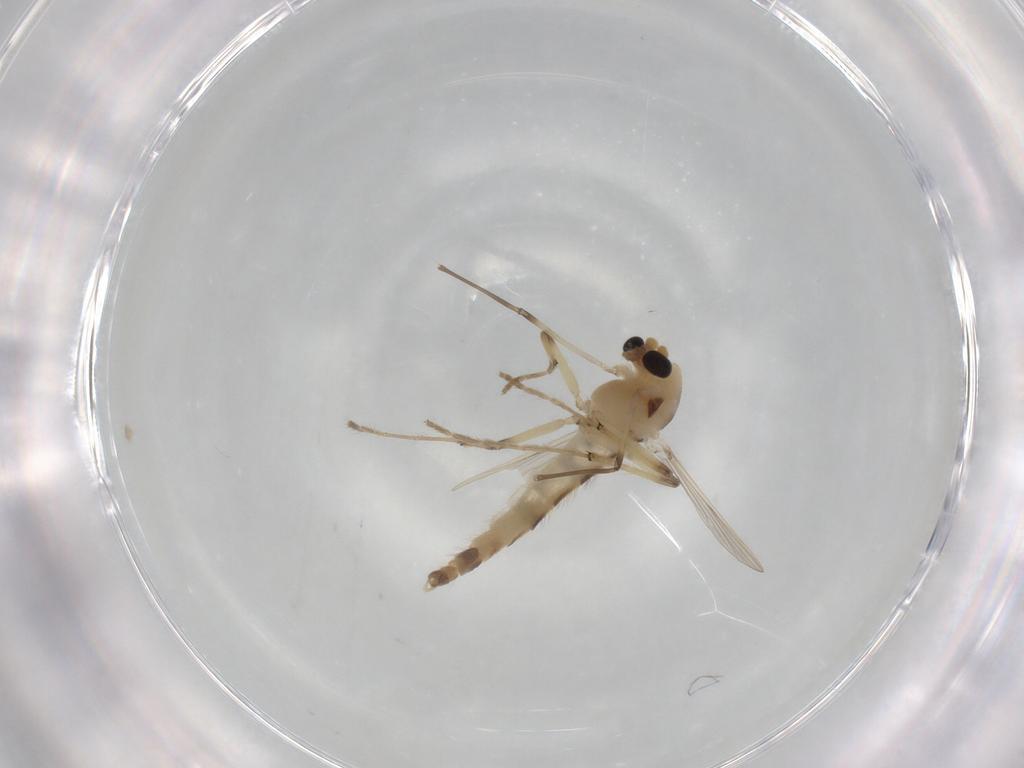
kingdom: Animalia
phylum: Arthropoda
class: Insecta
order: Diptera
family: Chironomidae
